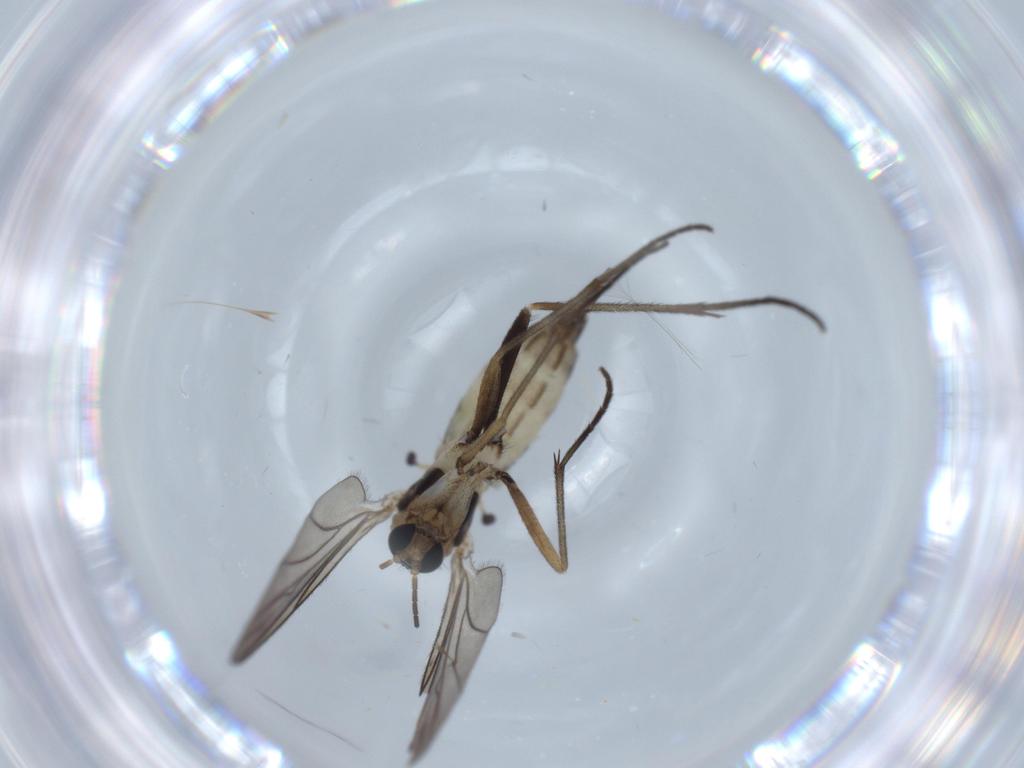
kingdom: Animalia
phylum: Arthropoda
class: Insecta
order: Diptera
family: Sciaridae
